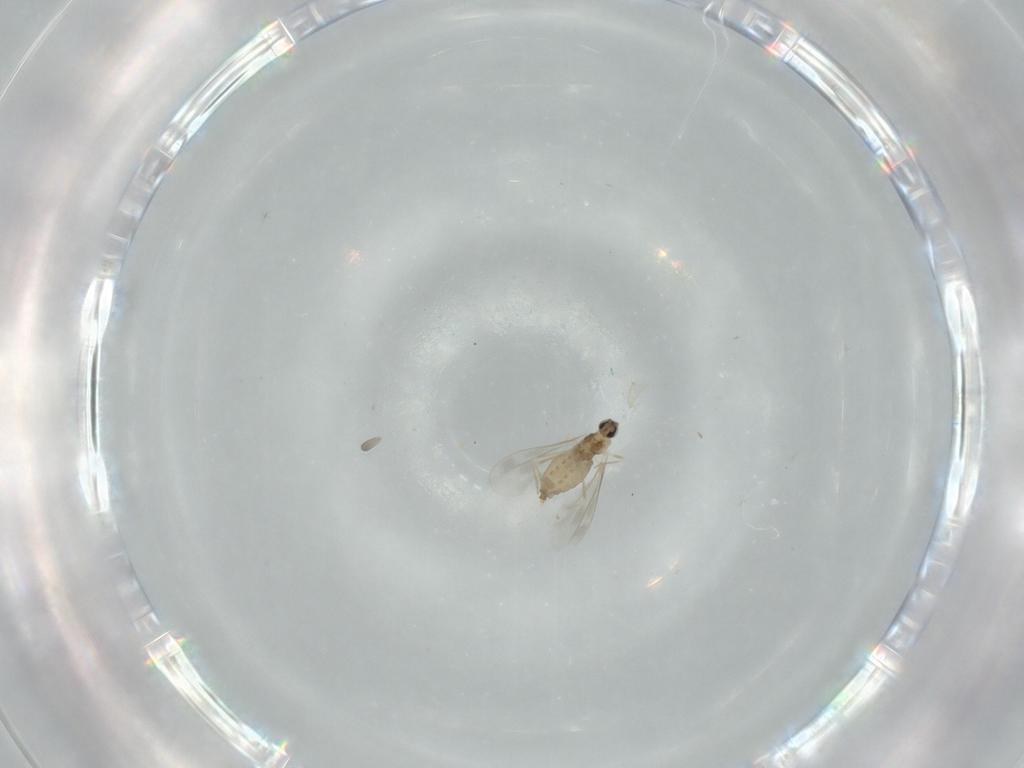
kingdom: Animalia
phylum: Arthropoda
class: Insecta
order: Diptera
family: Cecidomyiidae
